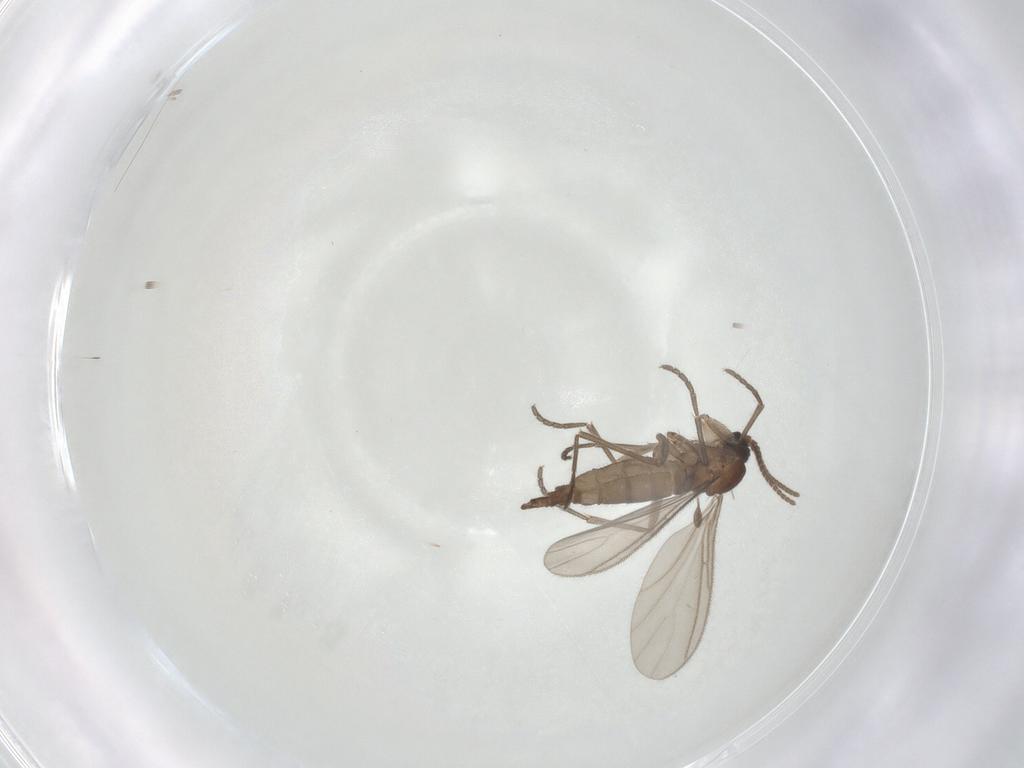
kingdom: Animalia
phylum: Arthropoda
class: Insecta
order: Diptera
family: Sciaridae
